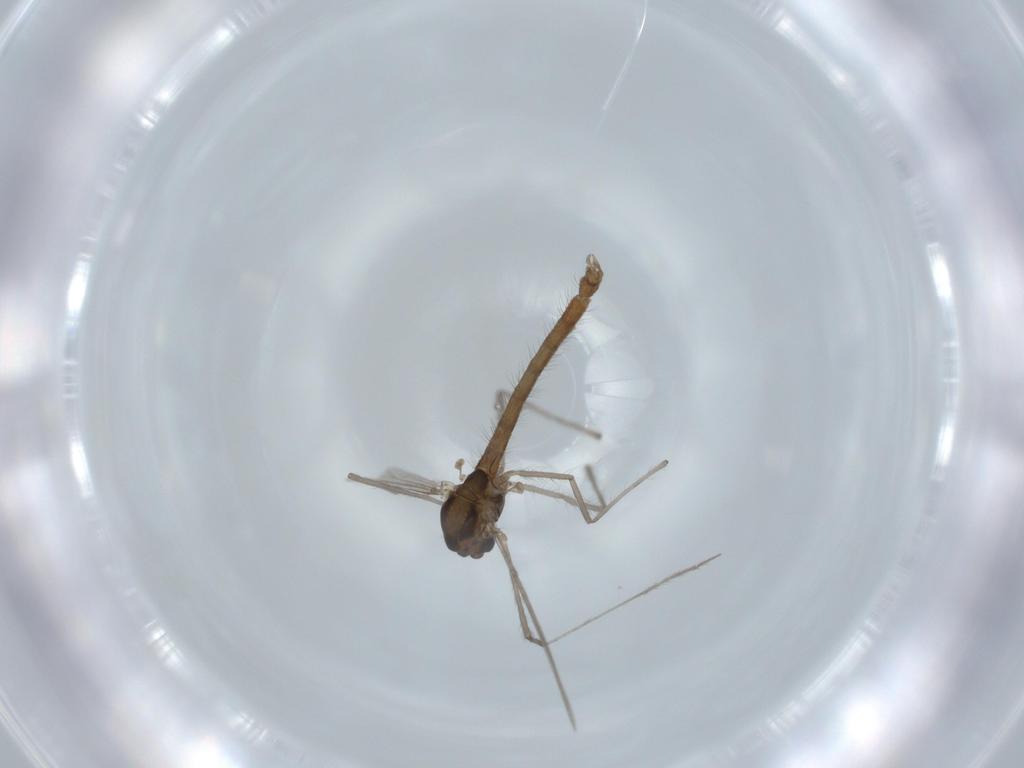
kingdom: Animalia
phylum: Arthropoda
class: Insecta
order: Diptera
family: Chironomidae
